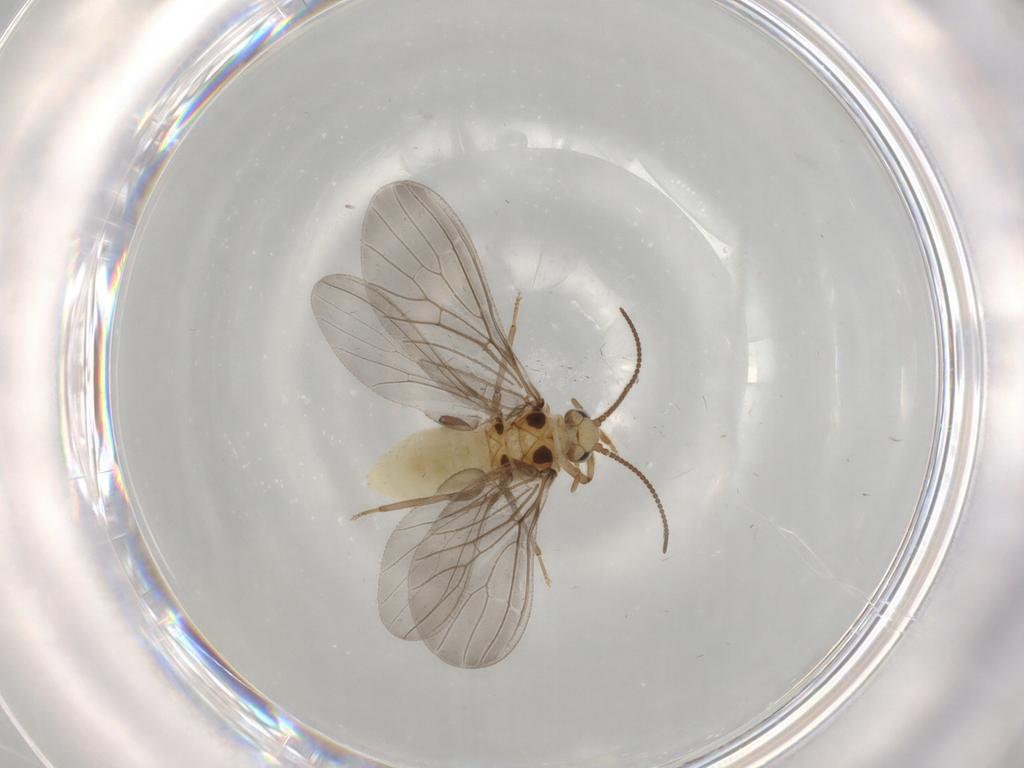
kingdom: Animalia
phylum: Arthropoda
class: Insecta
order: Neuroptera
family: Coniopterygidae
